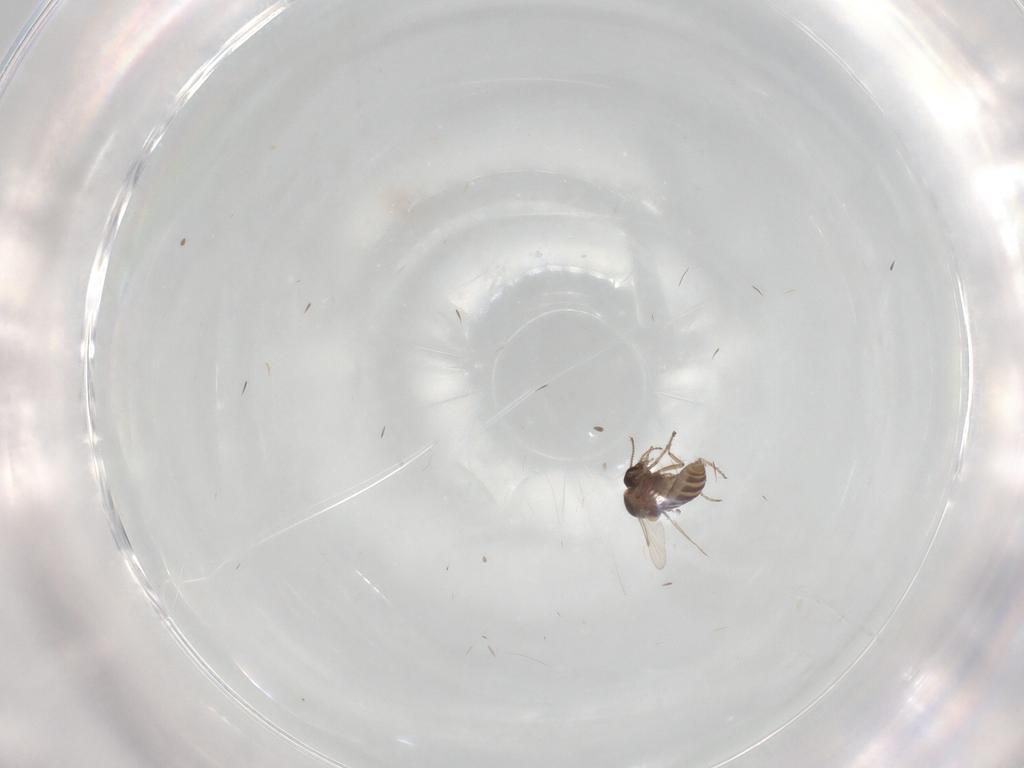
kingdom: Animalia
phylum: Arthropoda
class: Insecta
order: Diptera
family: Ceratopogonidae
